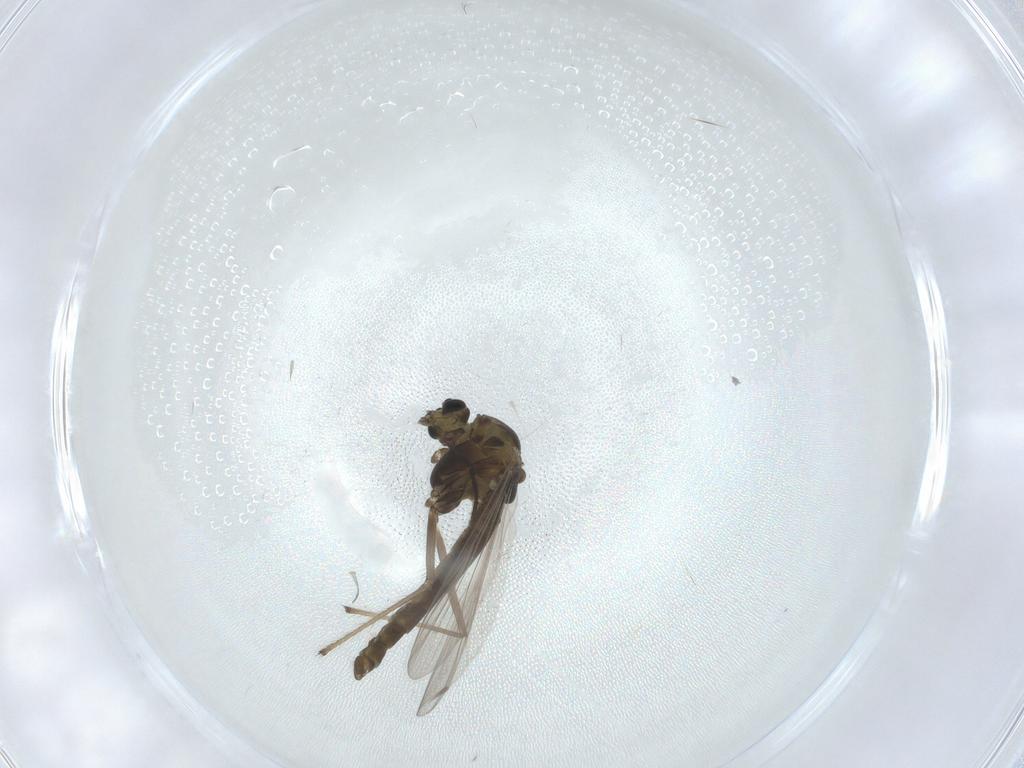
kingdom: Animalia
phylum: Arthropoda
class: Insecta
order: Diptera
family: Chironomidae
